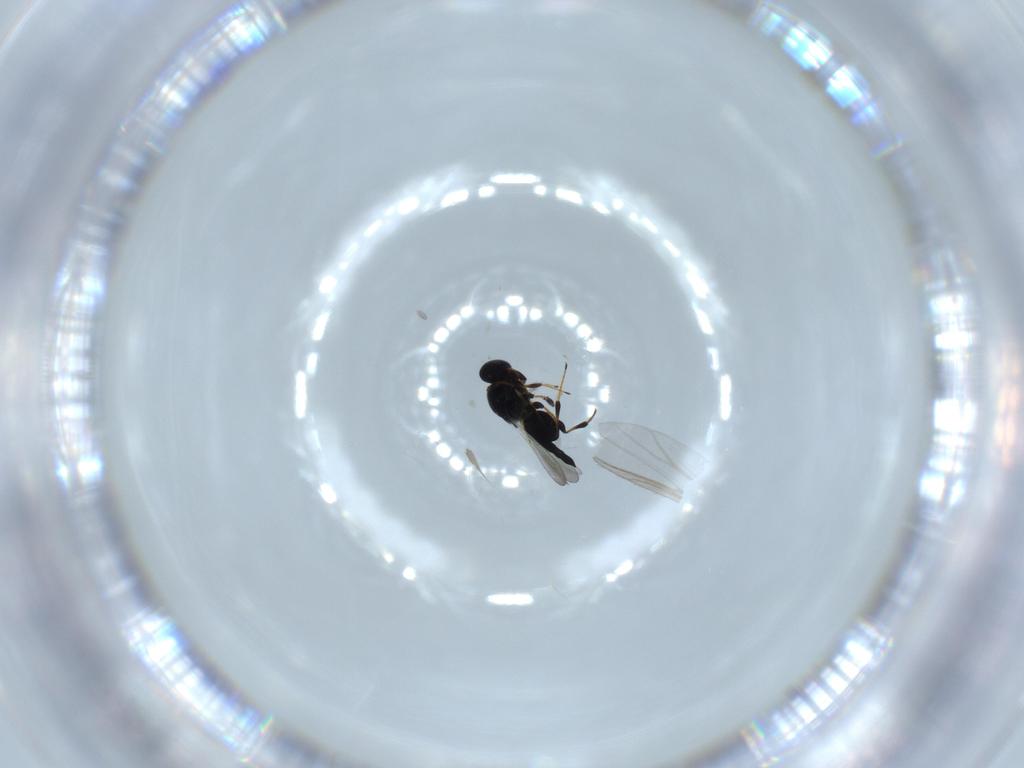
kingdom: Animalia
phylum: Arthropoda
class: Insecta
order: Hymenoptera
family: Platygastridae
